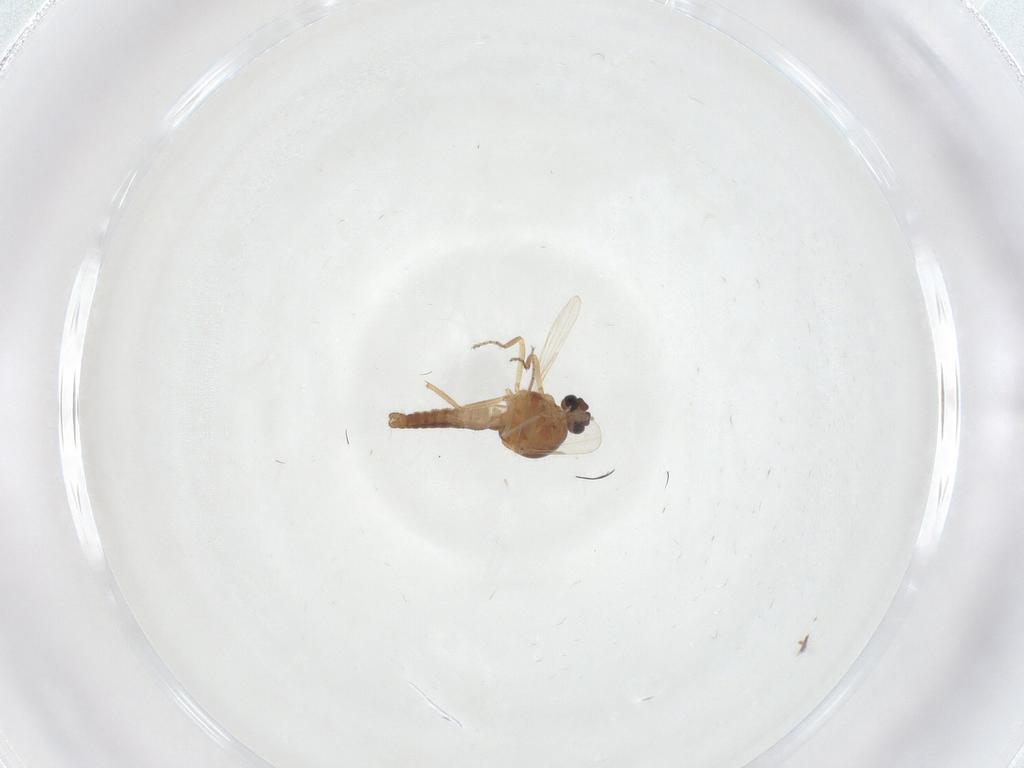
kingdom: Animalia
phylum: Arthropoda
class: Insecta
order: Diptera
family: Ceratopogonidae
